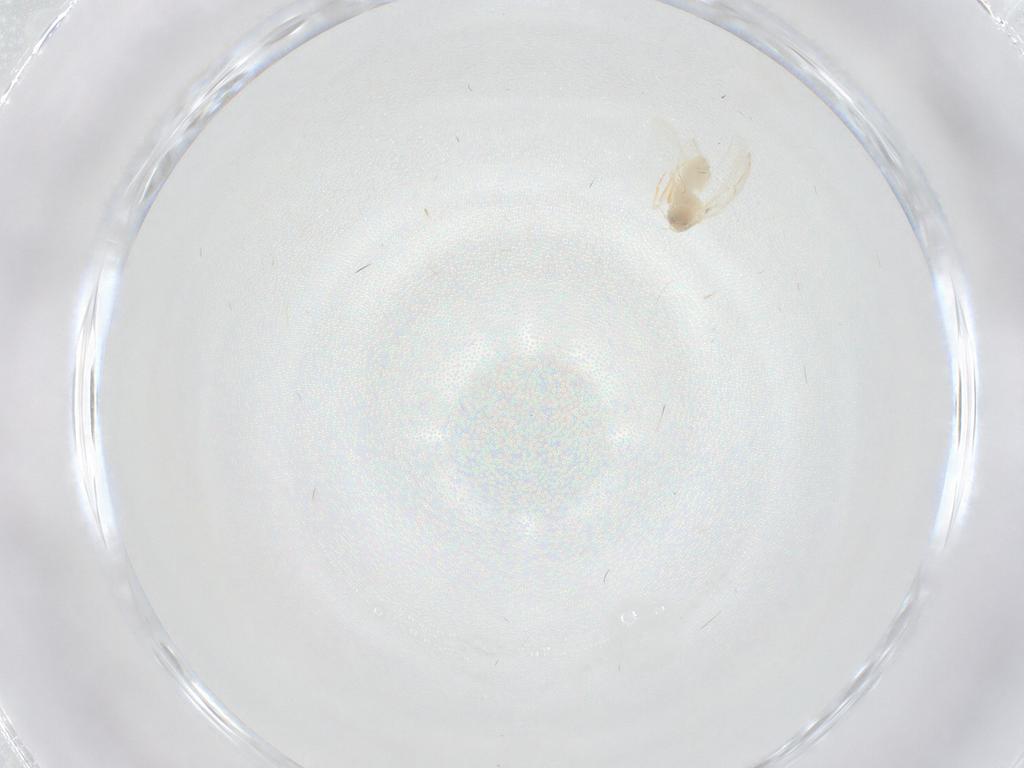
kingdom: Animalia
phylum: Arthropoda
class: Insecta
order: Hemiptera
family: Aleyrodidae
